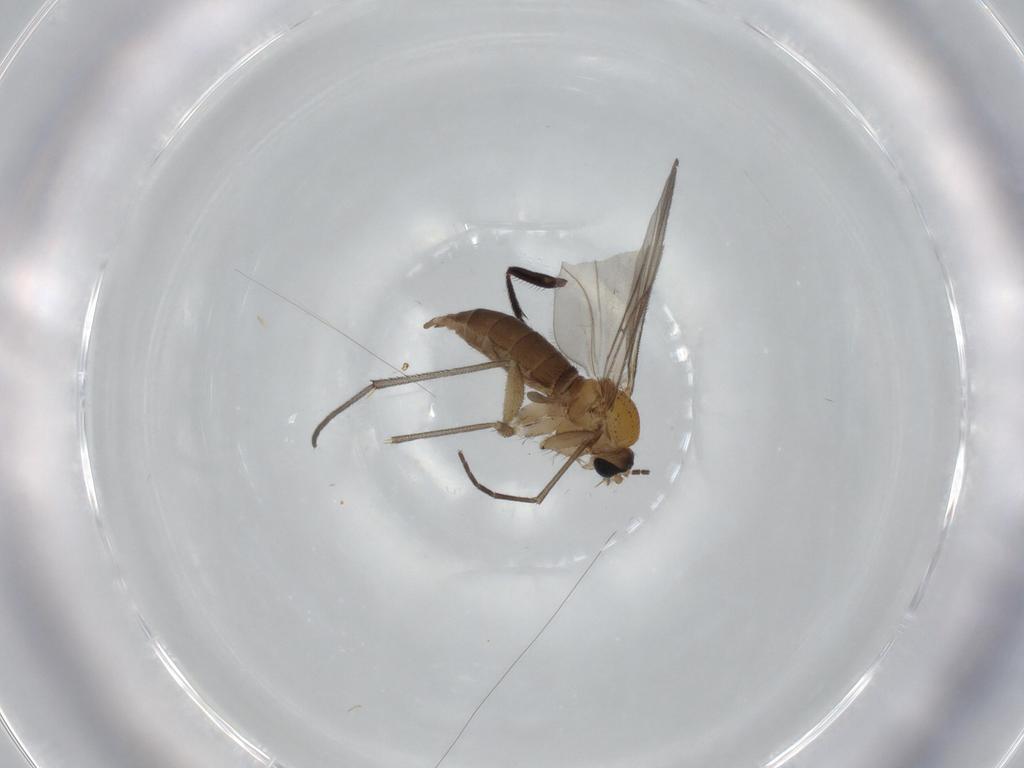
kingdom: Animalia
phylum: Arthropoda
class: Insecta
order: Diptera
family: Sciaridae
